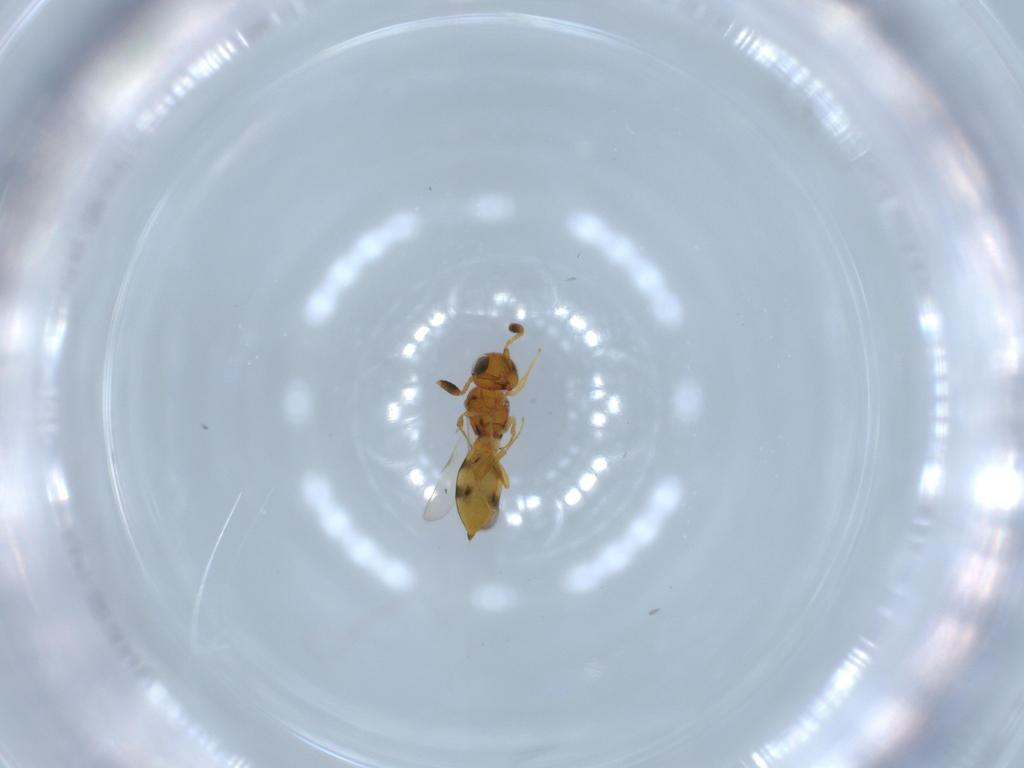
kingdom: Animalia
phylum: Arthropoda
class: Insecta
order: Hymenoptera
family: Scelionidae
